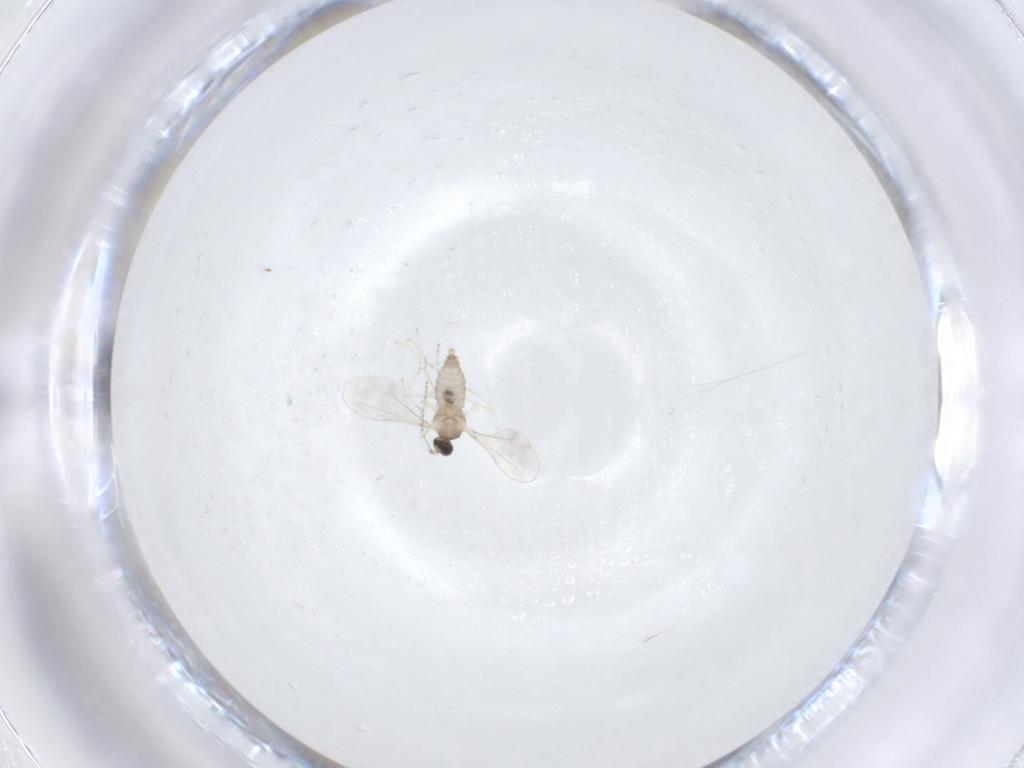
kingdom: Animalia
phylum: Arthropoda
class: Insecta
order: Diptera
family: Cecidomyiidae
